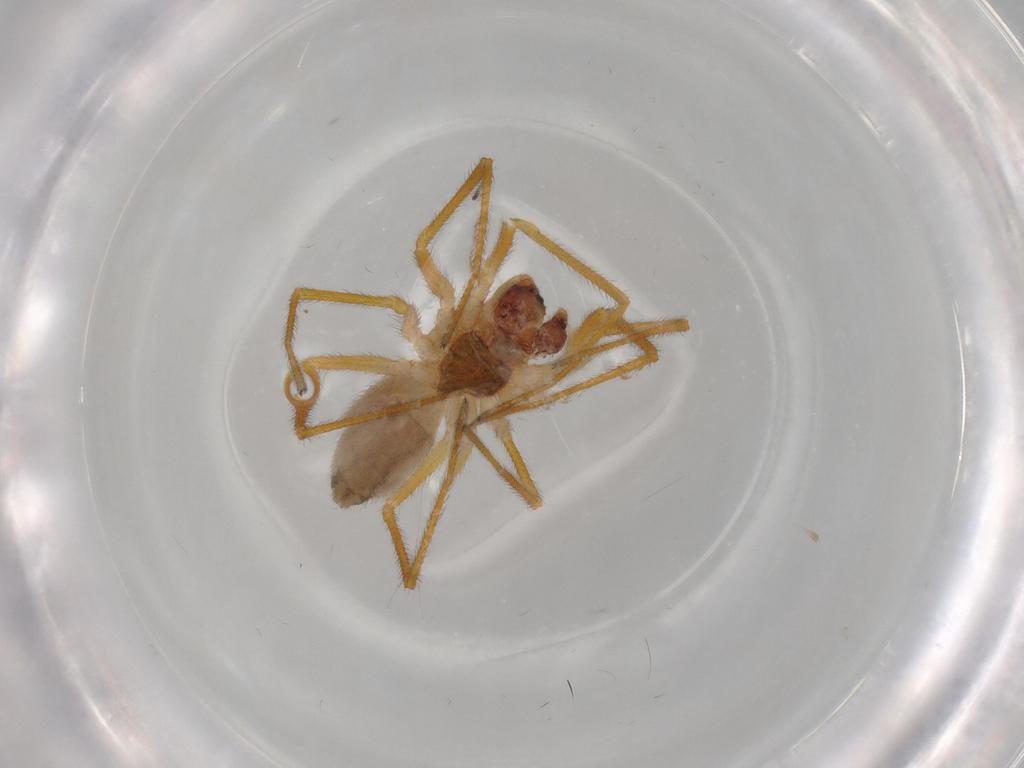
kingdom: Animalia
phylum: Arthropoda
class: Arachnida
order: Araneae
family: Linyphiidae
